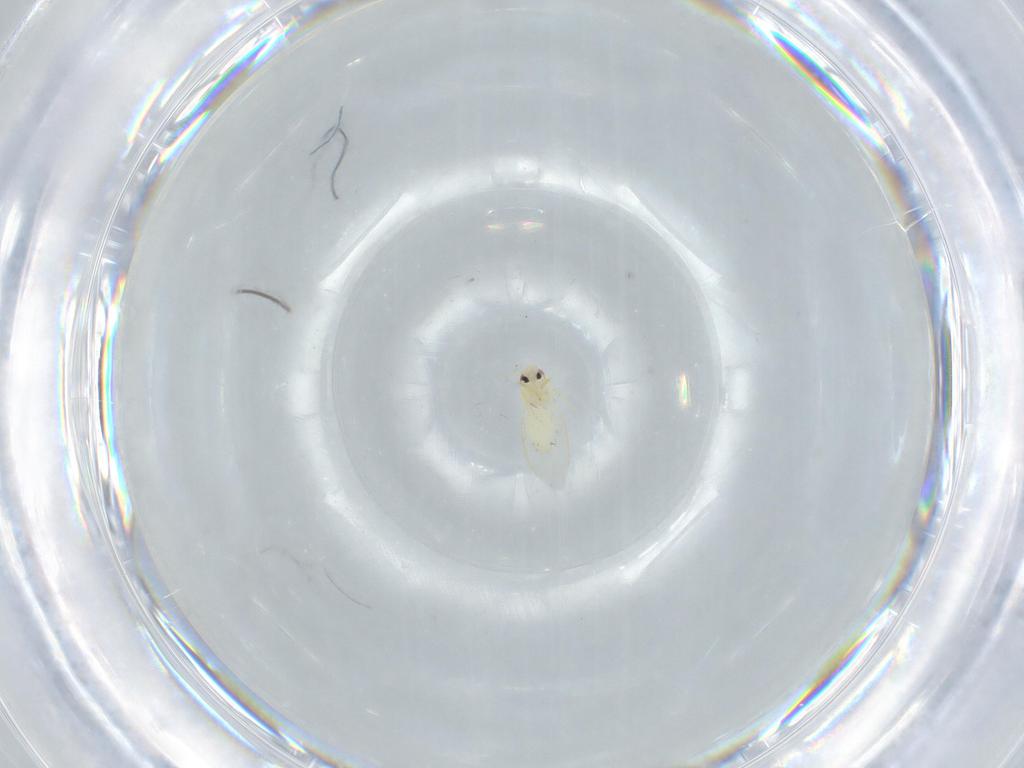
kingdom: Animalia
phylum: Arthropoda
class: Insecta
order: Hemiptera
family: Aleyrodidae
